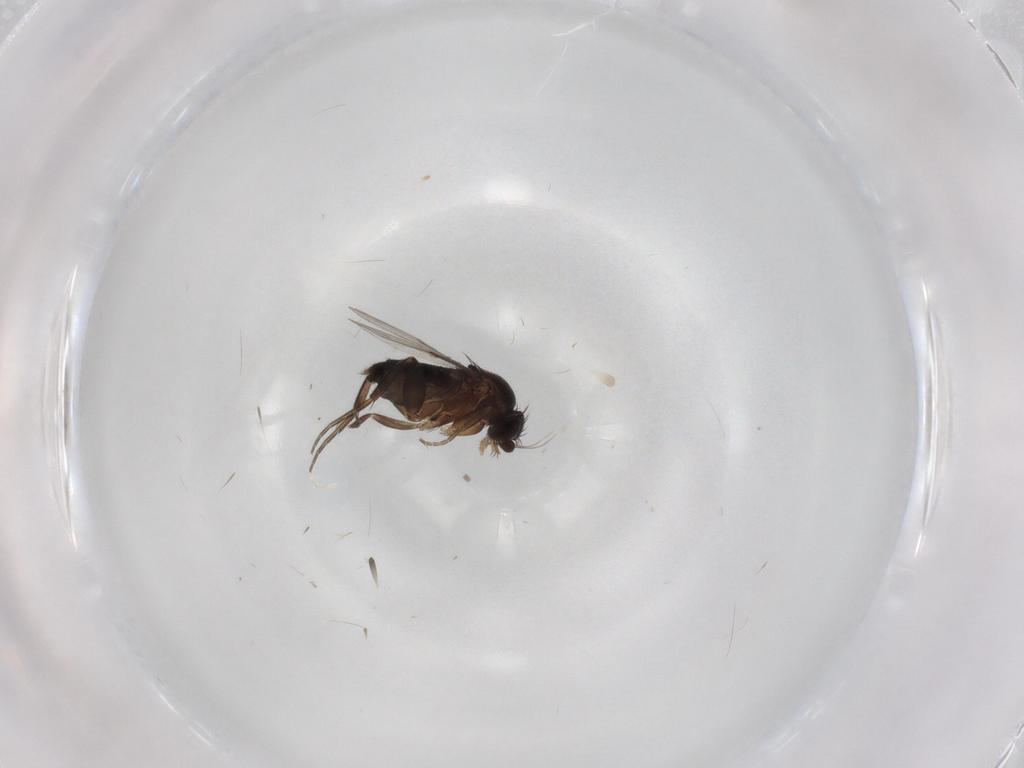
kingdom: Animalia
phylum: Arthropoda
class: Insecta
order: Diptera
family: Phoridae
